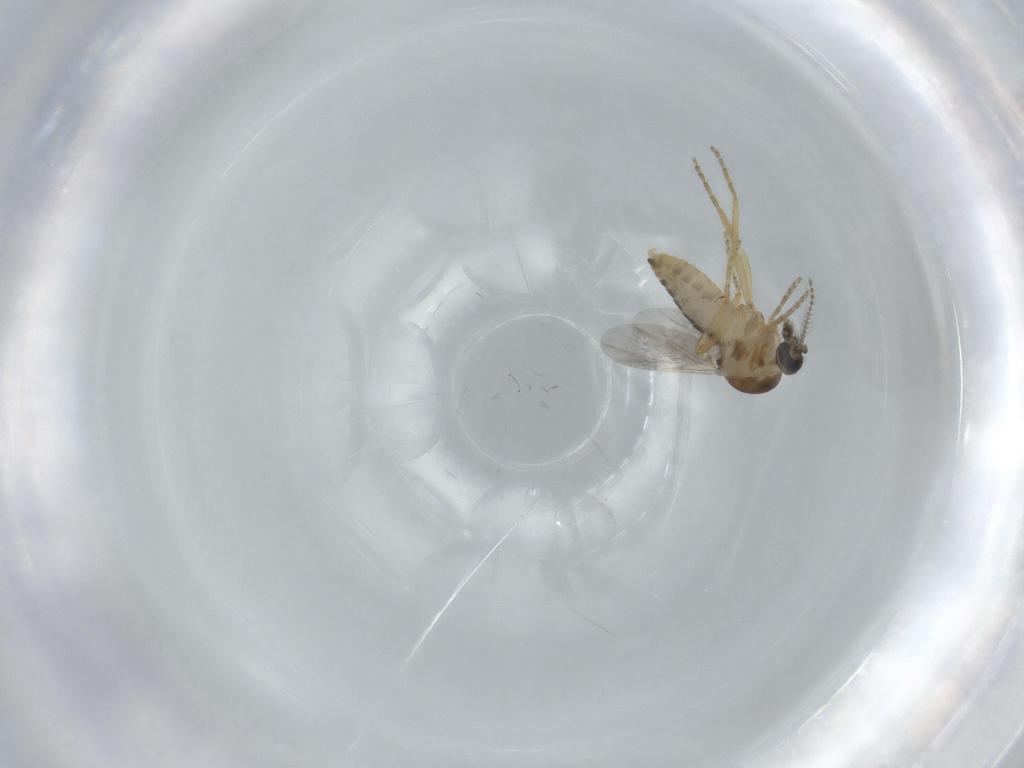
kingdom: Animalia
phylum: Arthropoda
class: Insecta
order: Diptera
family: Ceratopogonidae
